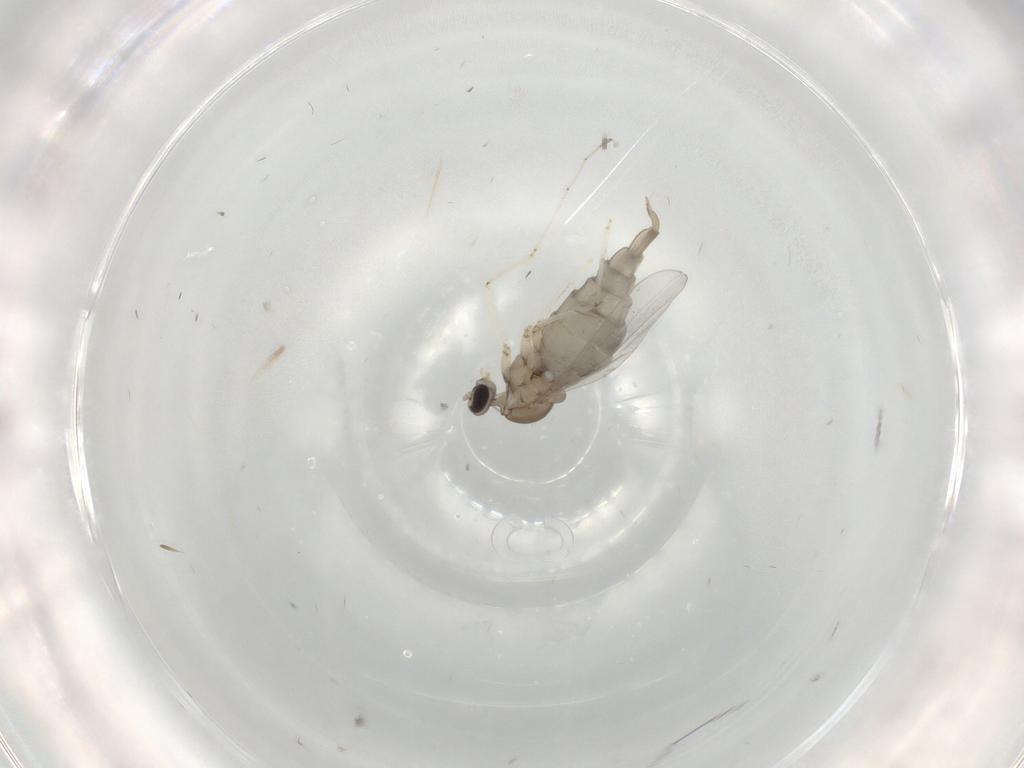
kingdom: Animalia
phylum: Arthropoda
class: Insecta
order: Diptera
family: Cecidomyiidae
